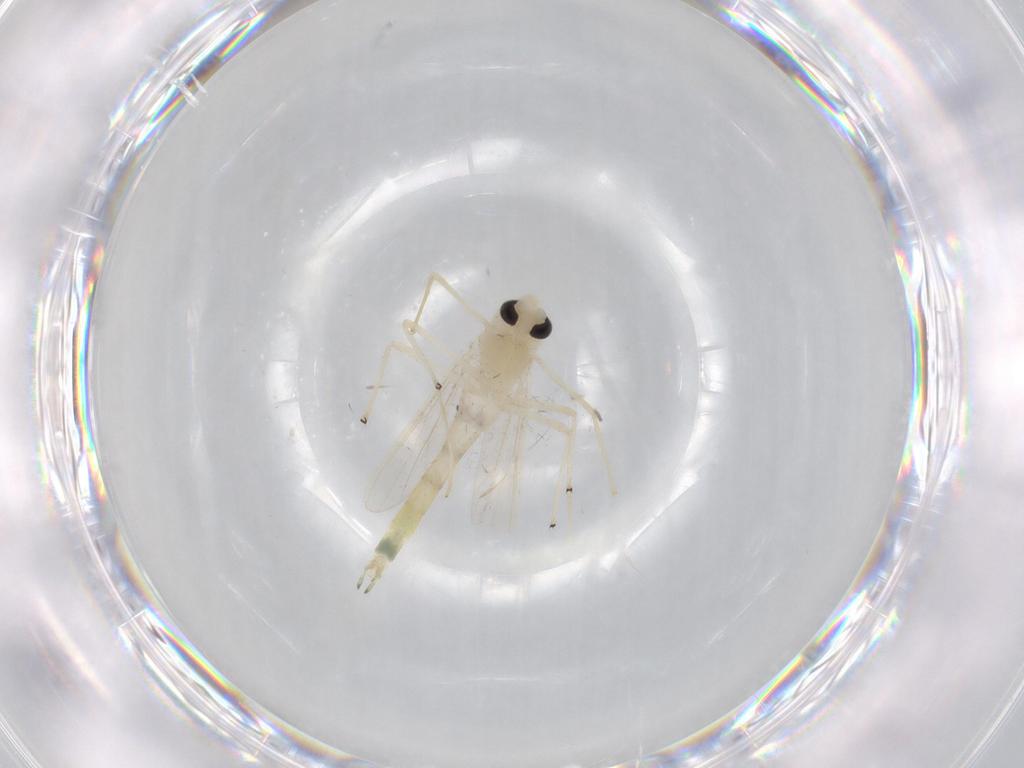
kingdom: Animalia
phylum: Arthropoda
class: Insecta
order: Diptera
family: Chironomidae
